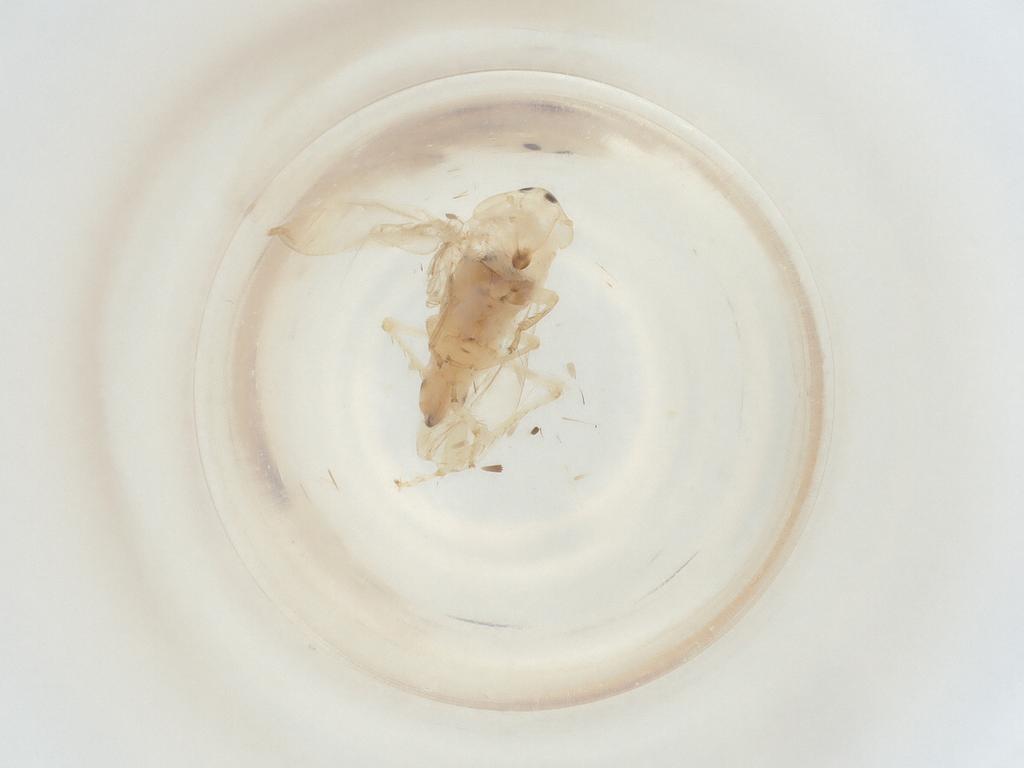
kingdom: Animalia
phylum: Arthropoda
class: Insecta
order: Hemiptera
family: Cicadellidae
